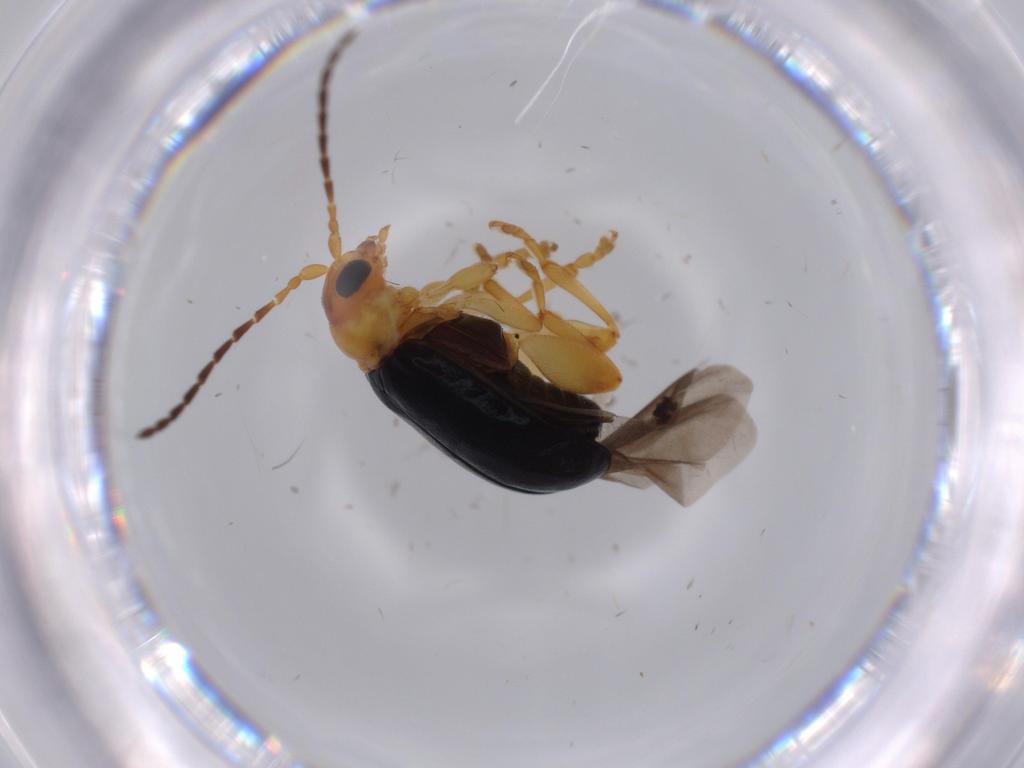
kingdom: Animalia
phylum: Arthropoda
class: Insecta
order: Coleoptera
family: Chrysomelidae
